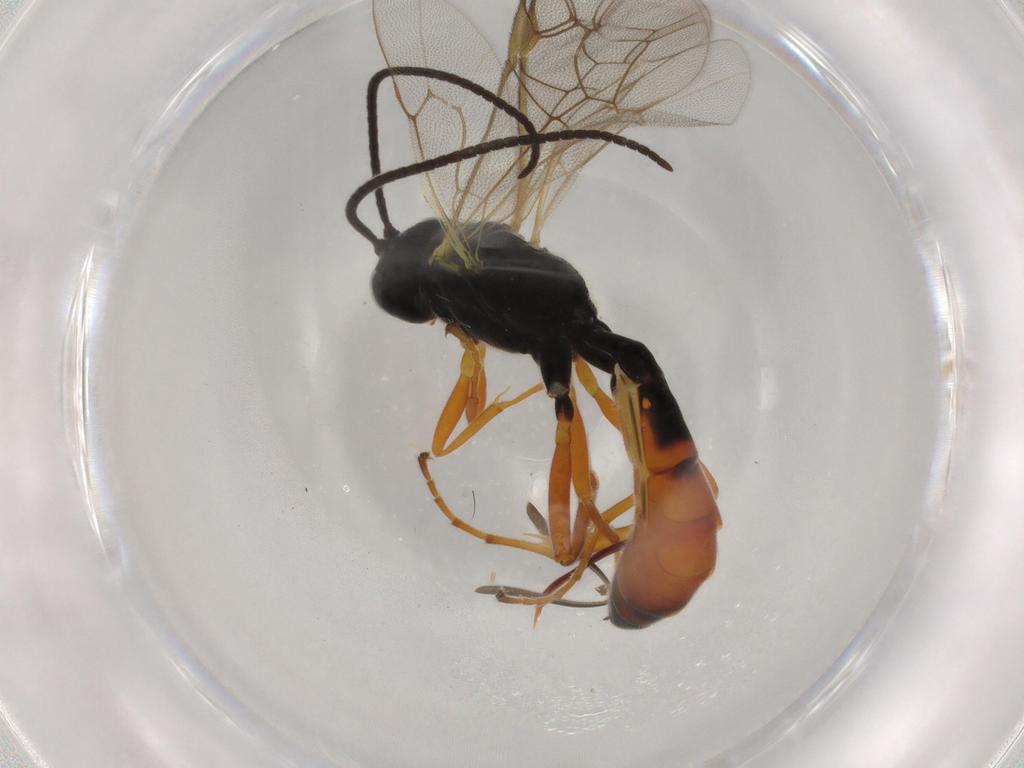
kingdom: Animalia
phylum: Arthropoda
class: Insecta
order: Hymenoptera
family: Ichneumonidae
